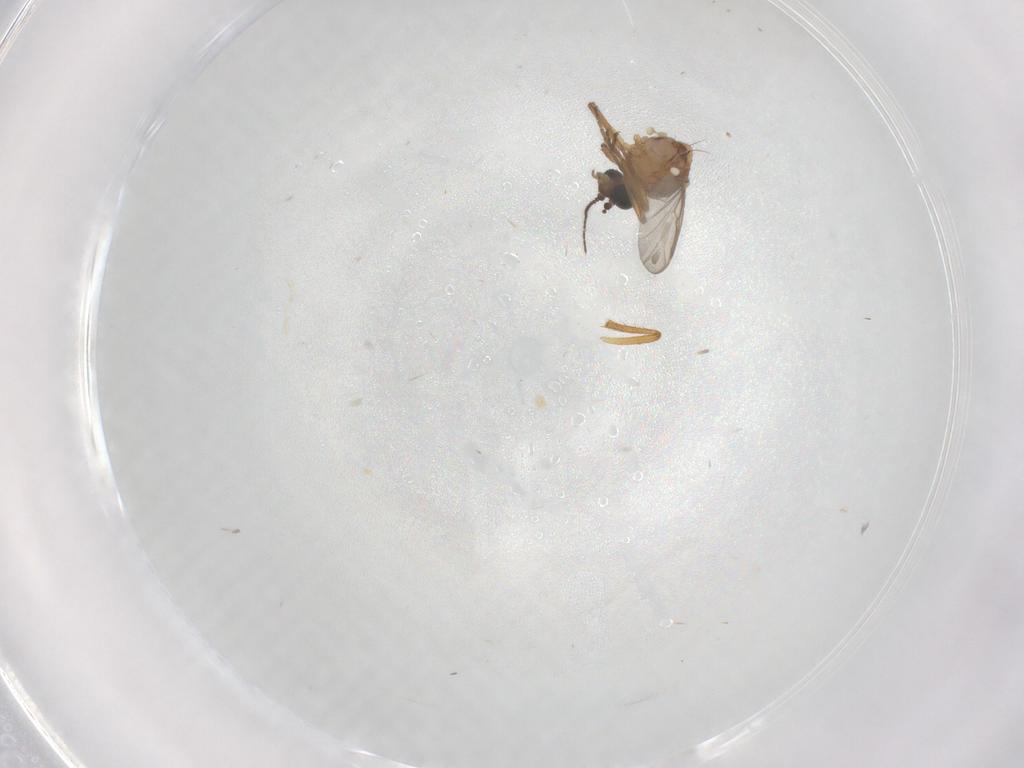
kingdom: Animalia
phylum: Arthropoda
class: Insecta
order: Diptera
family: Ceratopogonidae
